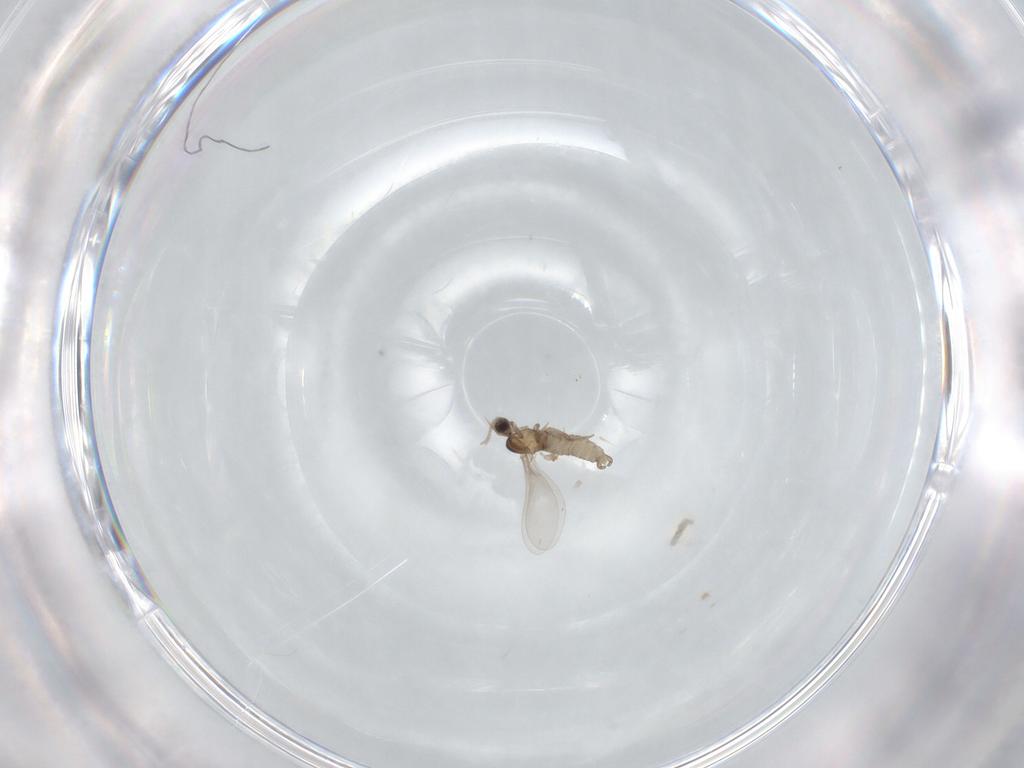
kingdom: Animalia
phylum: Arthropoda
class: Insecta
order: Diptera
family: Cecidomyiidae
